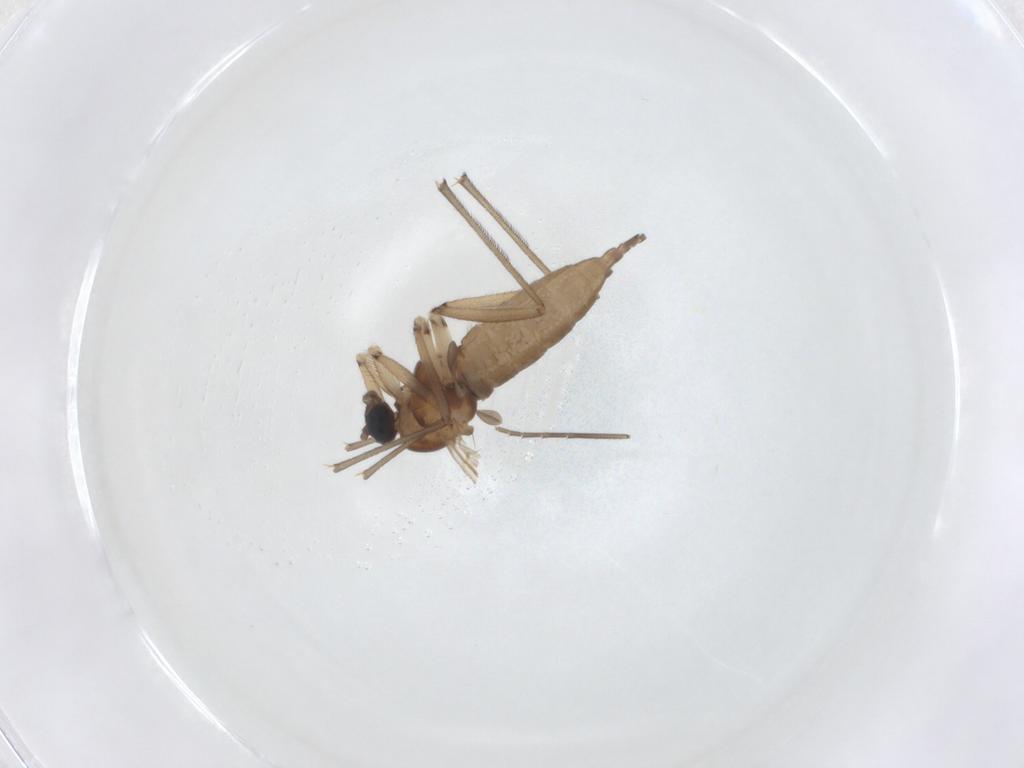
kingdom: Animalia
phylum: Arthropoda
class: Insecta
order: Diptera
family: Sciaridae
